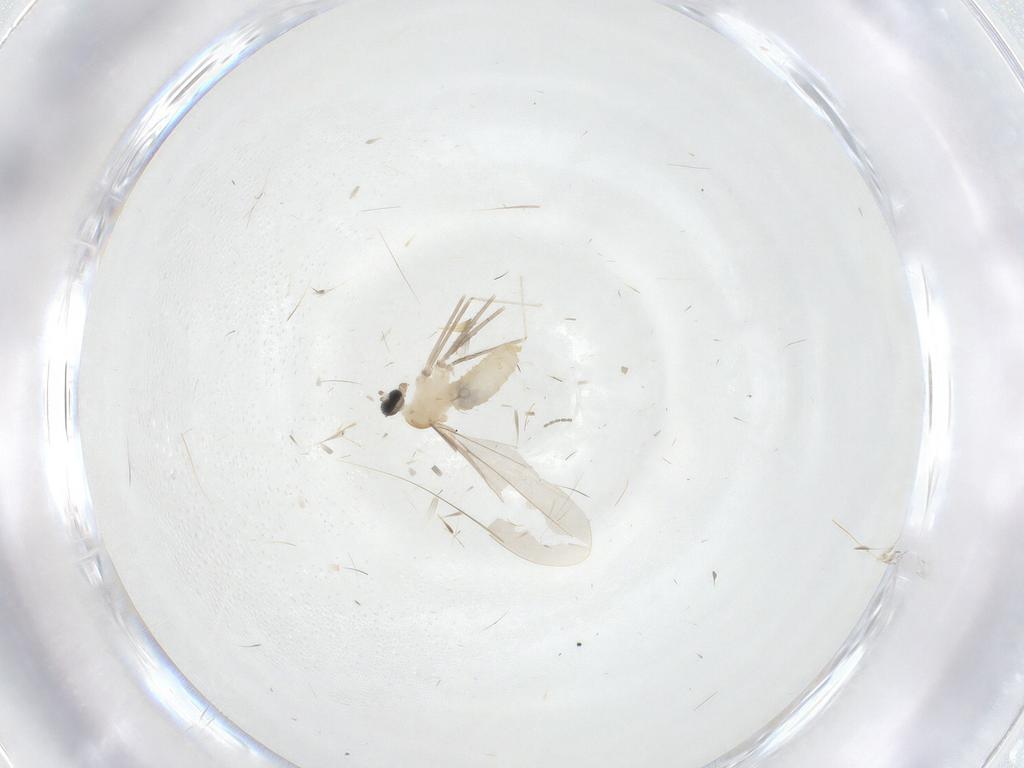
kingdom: Animalia
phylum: Arthropoda
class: Insecta
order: Diptera
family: Cecidomyiidae
